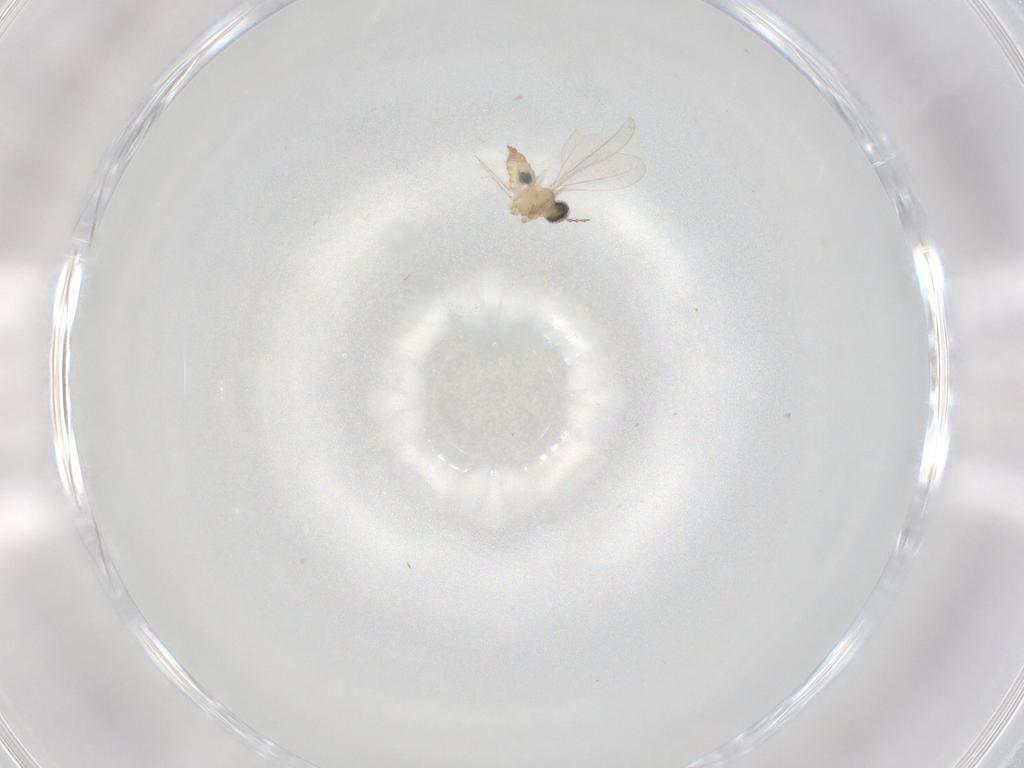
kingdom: Animalia
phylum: Arthropoda
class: Insecta
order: Diptera
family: Cecidomyiidae
